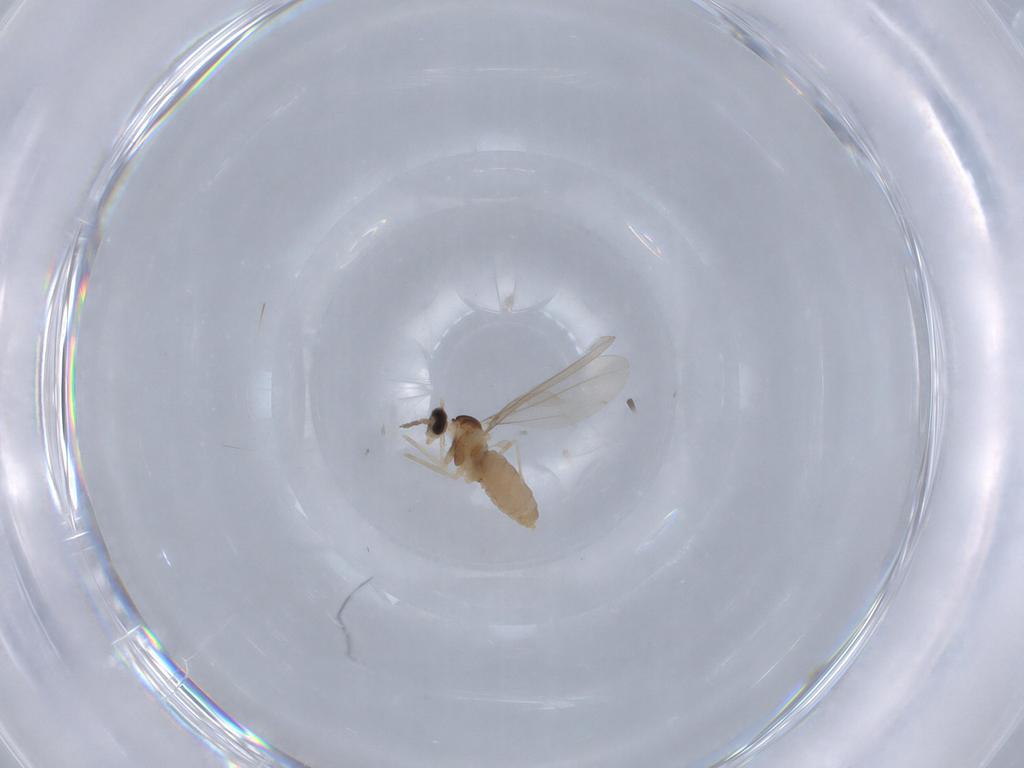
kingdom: Animalia
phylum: Arthropoda
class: Insecta
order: Diptera
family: Cecidomyiidae
